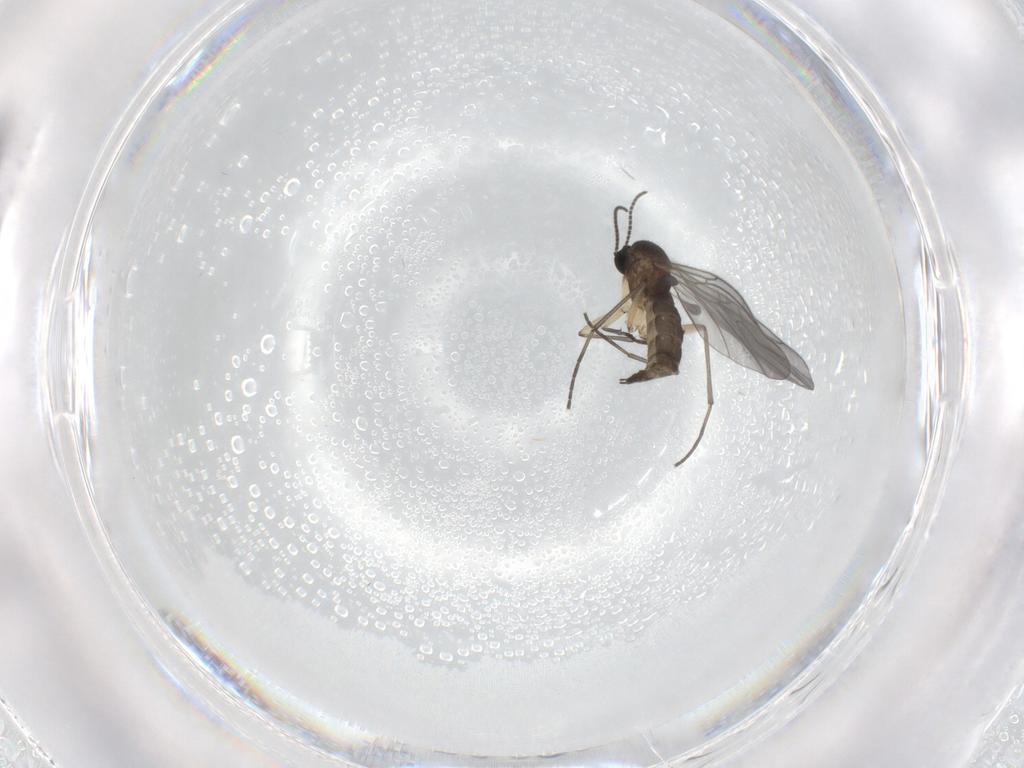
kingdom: Animalia
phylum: Arthropoda
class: Insecta
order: Diptera
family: Sciaridae
